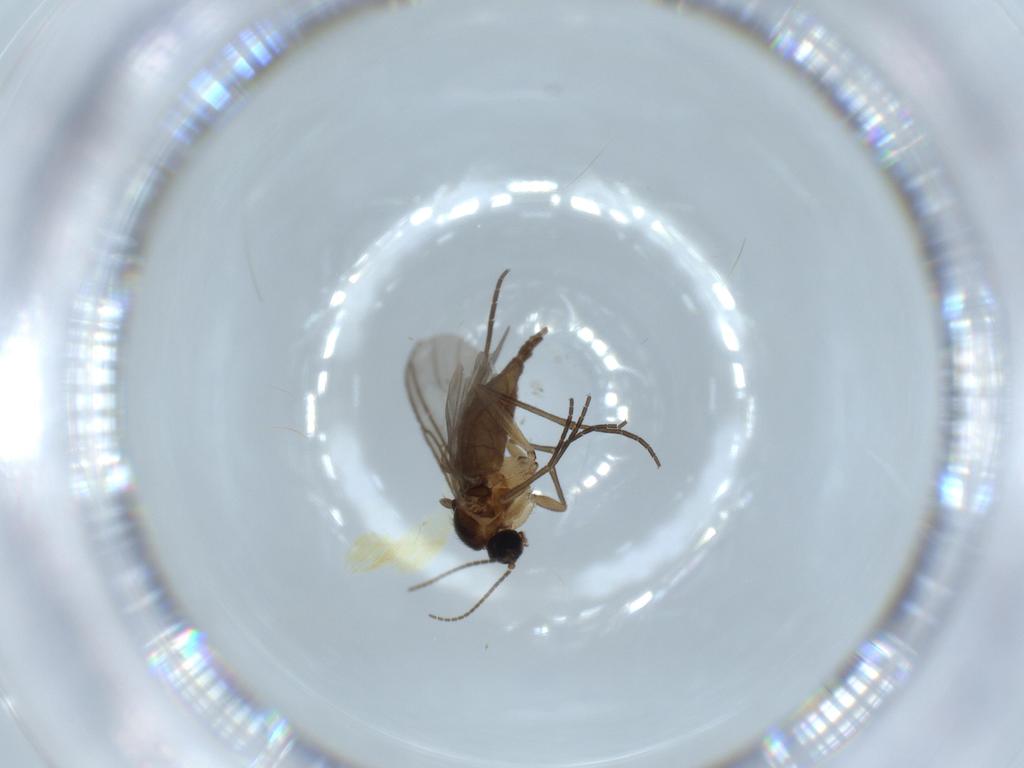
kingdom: Animalia
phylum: Arthropoda
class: Insecta
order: Diptera
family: Sciaridae
